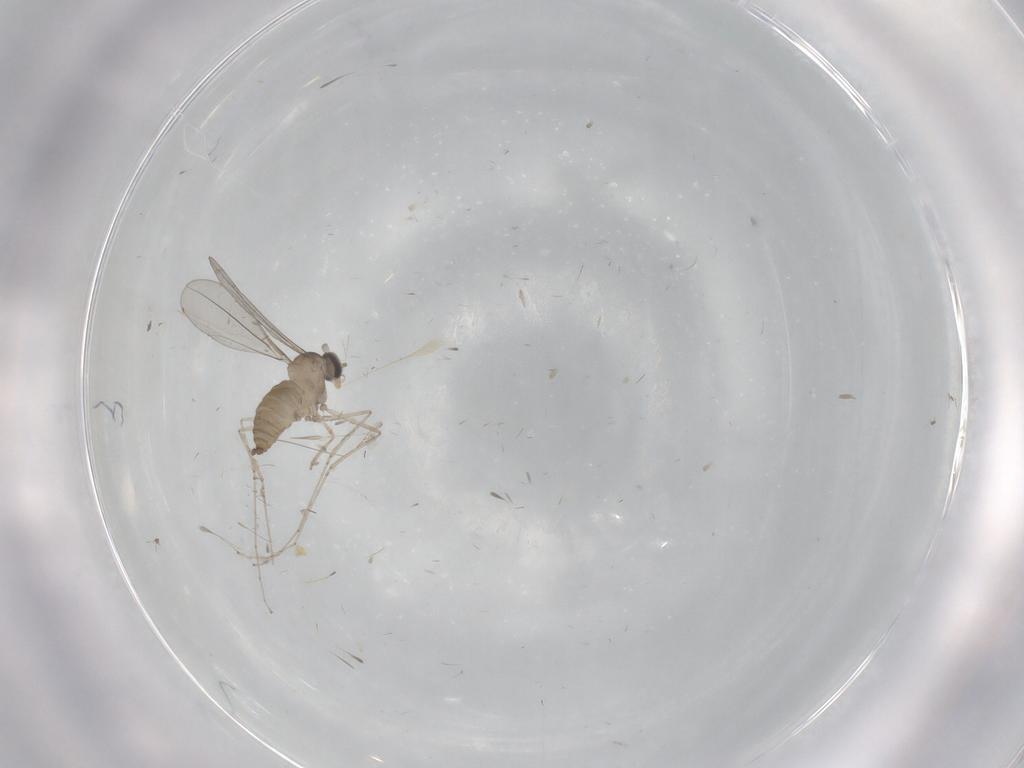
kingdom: Animalia
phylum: Arthropoda
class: Insecta
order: Diptera
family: Cecidomyiidae
